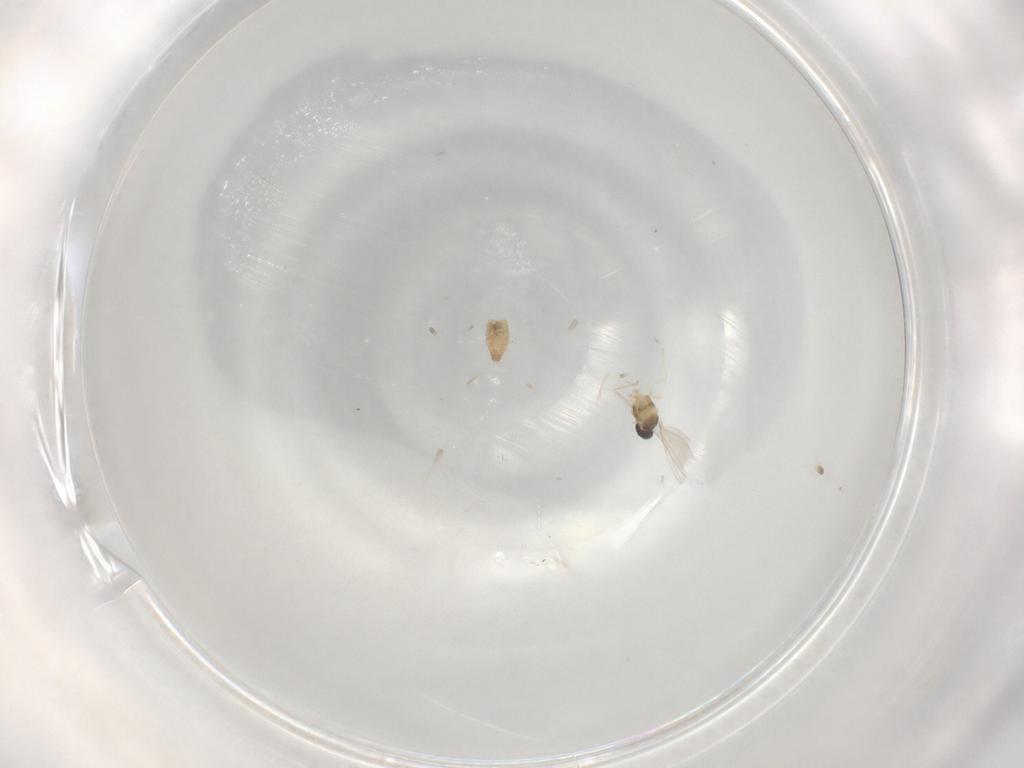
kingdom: Animalia
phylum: Arthropoda
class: Insecta
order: Diptera
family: Cecidomyiidae
